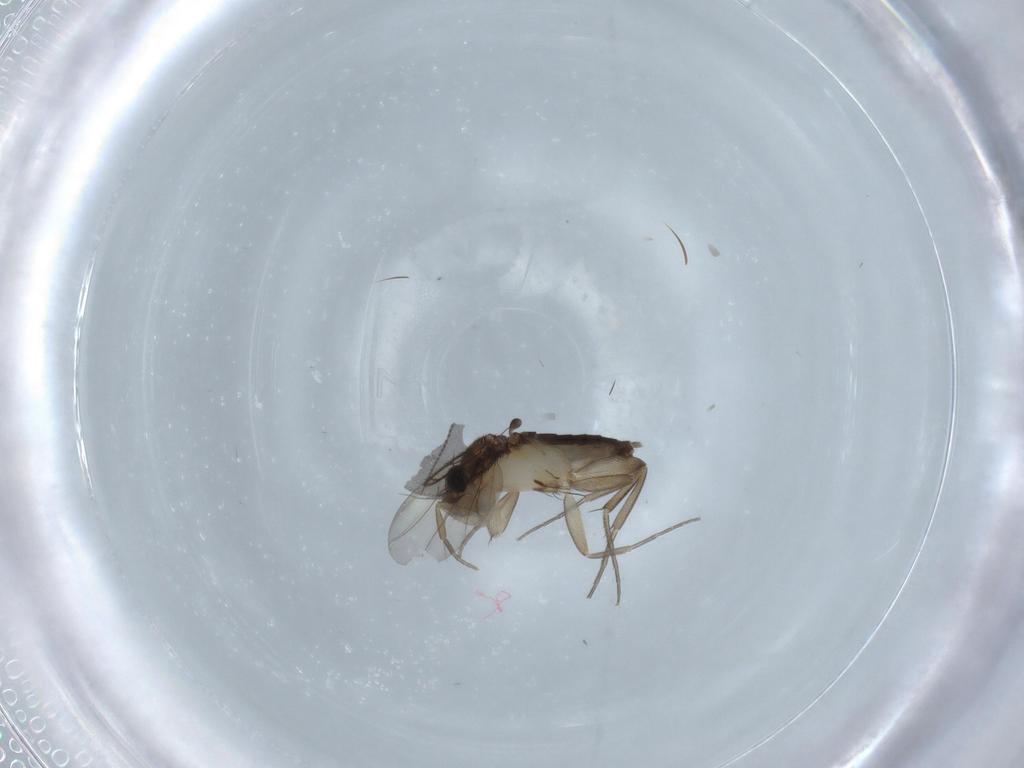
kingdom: Animalia
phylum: Arthropoda
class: Insecta
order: Diptera
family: Phoridae
